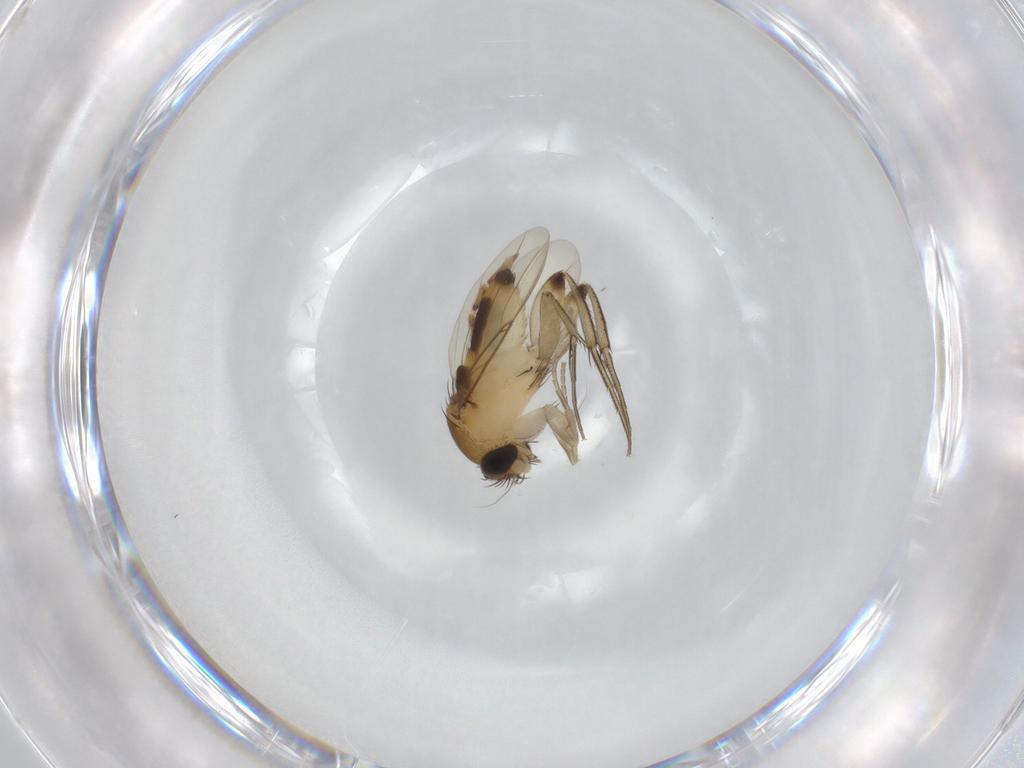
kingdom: Animalia
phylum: Arthropoda
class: Insecta
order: Diptera
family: Phoridae
